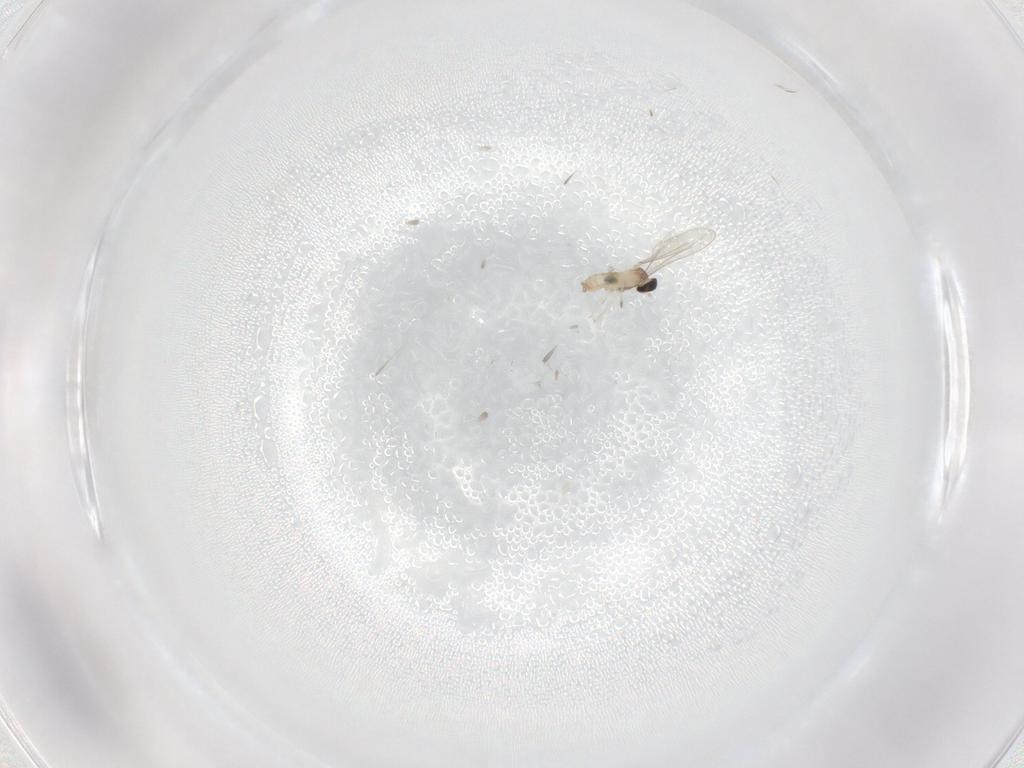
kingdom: Animalia
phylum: Arthropoda
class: Insecta
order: Diptera
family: Cecidomyiidae
